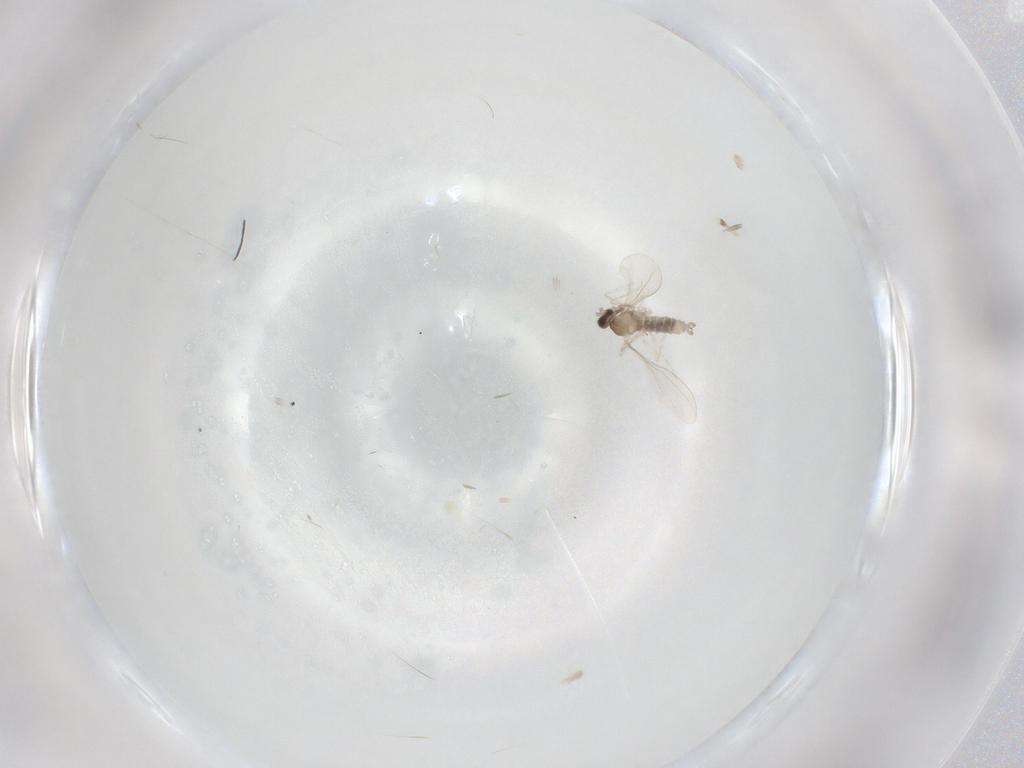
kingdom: Animalia
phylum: Arthropoda
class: Insecta
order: Diptera
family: Cecidomyiidae
